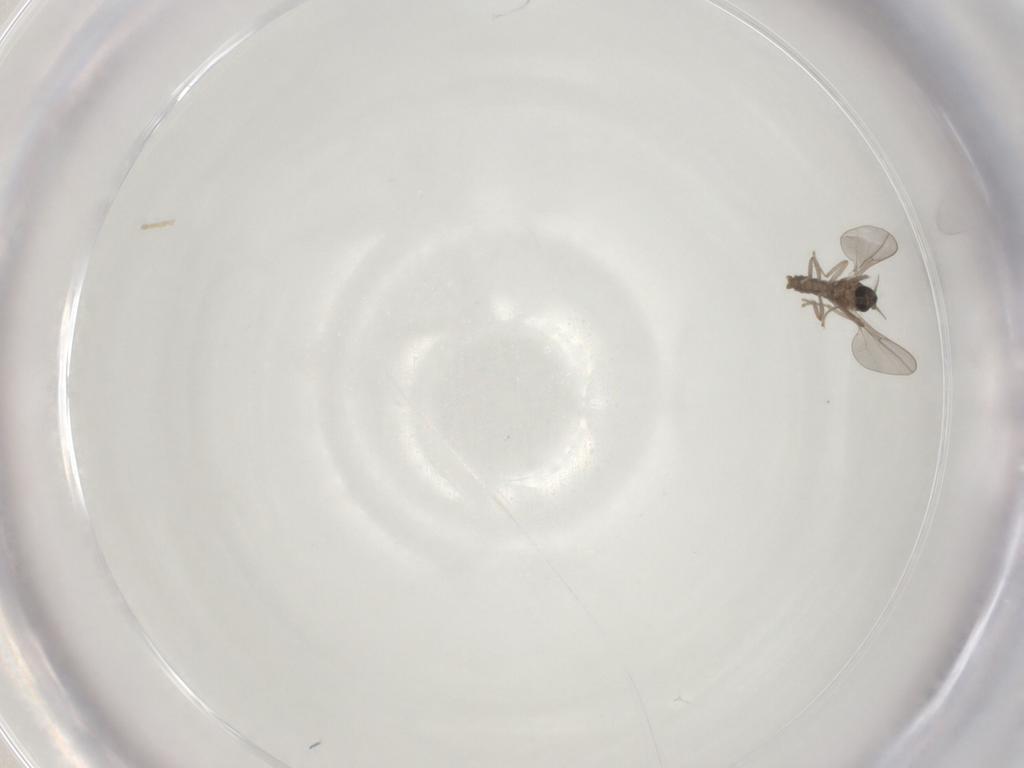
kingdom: Animalia
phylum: Arthropoda
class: Insecta
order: Diptera
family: Cecidomyiidae
